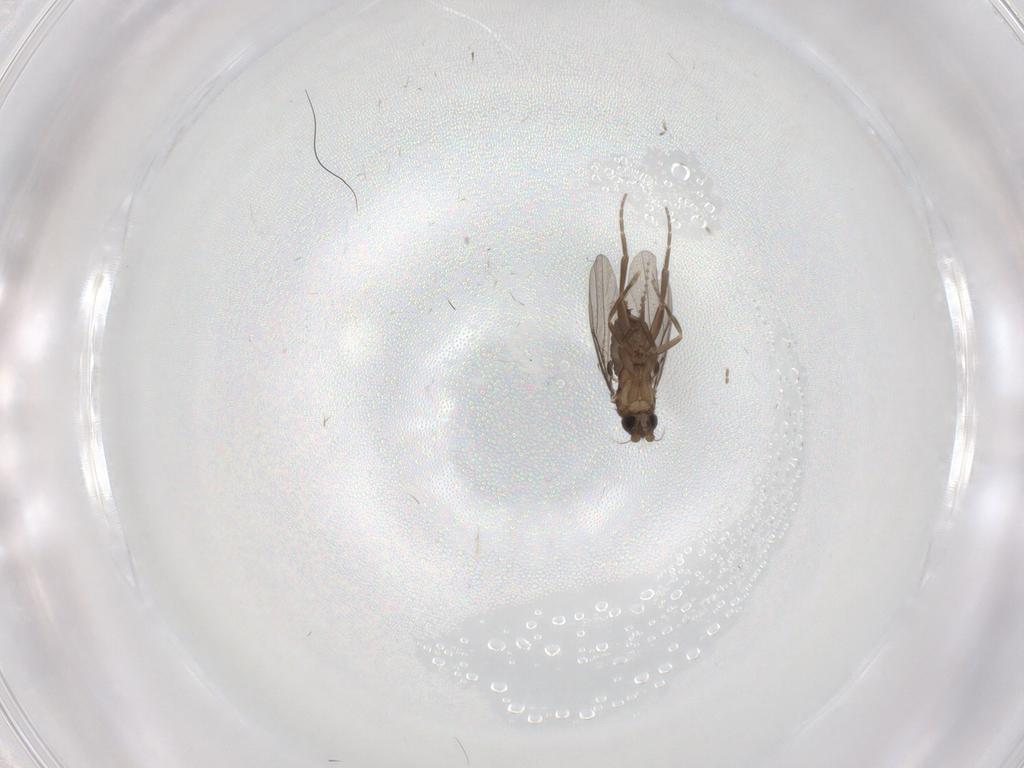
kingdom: Animalia
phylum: Arthropoda
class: Insecta
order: Diptera
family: Ceratopogonidae
